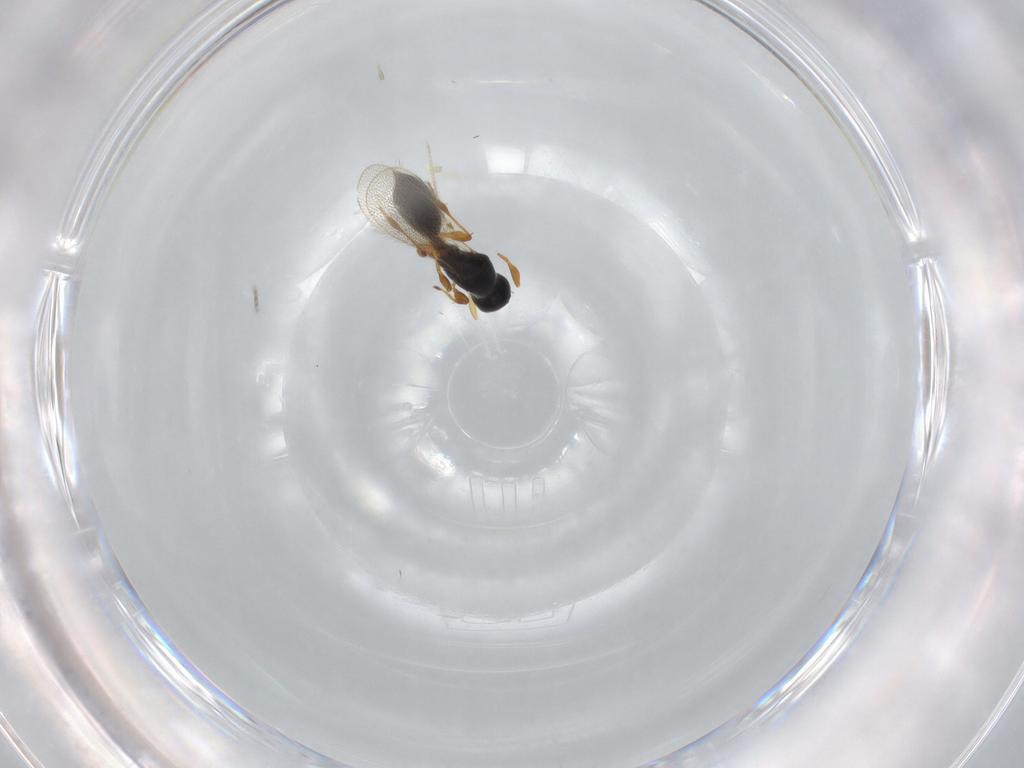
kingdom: Animalia
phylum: Arthropoda
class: Insecta
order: Hymenoptera
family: Diapriidae
